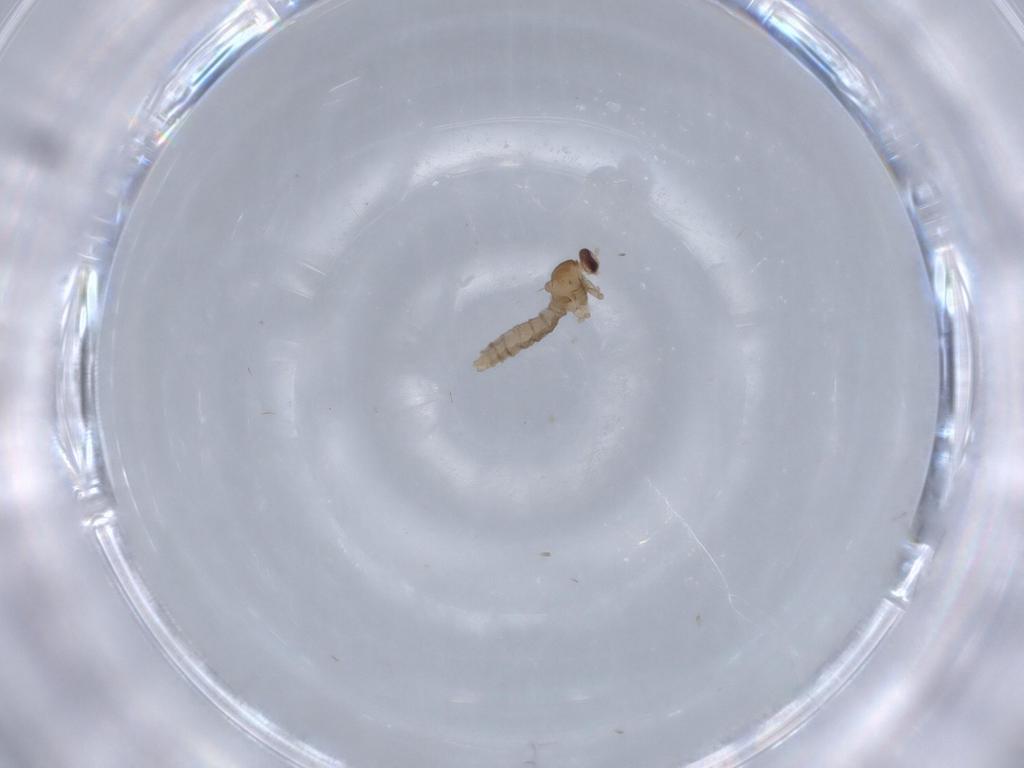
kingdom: Animalia
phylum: Arthropoda
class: Insecta
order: Diptera
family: Cecidomyiidae
